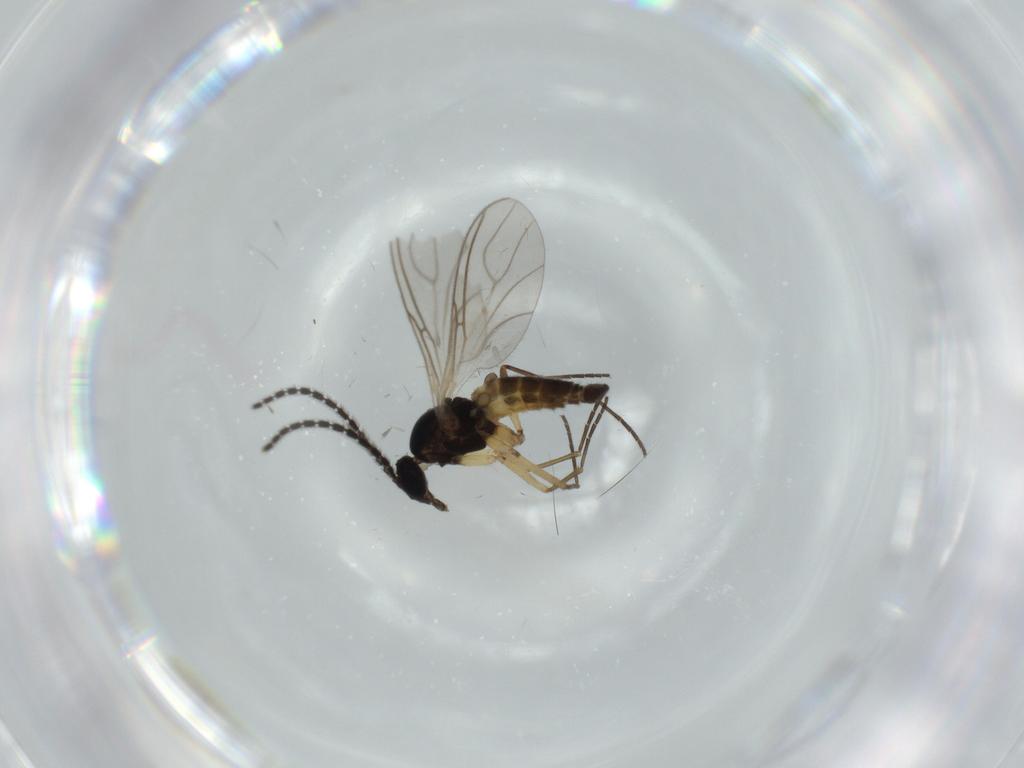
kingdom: Animalia
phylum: Arthropoda
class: Insecta
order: Diptera
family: Sciaridae
